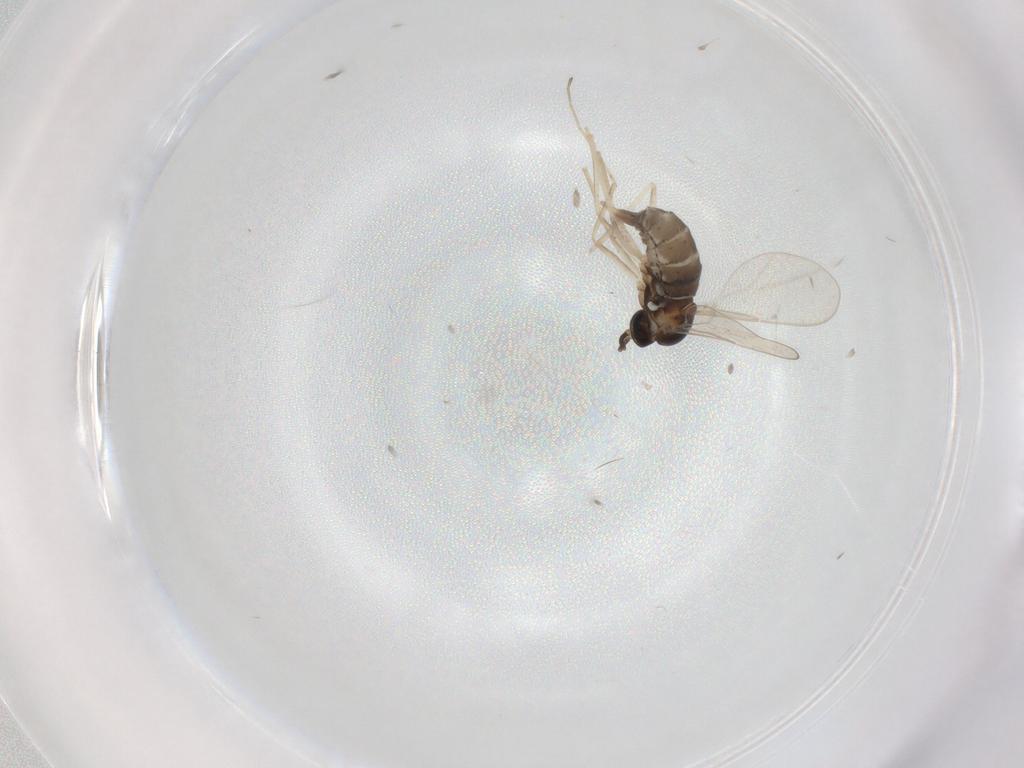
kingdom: Animalia
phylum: Arthropoda
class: Insecta
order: Diptera
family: Cecidomyiidae
